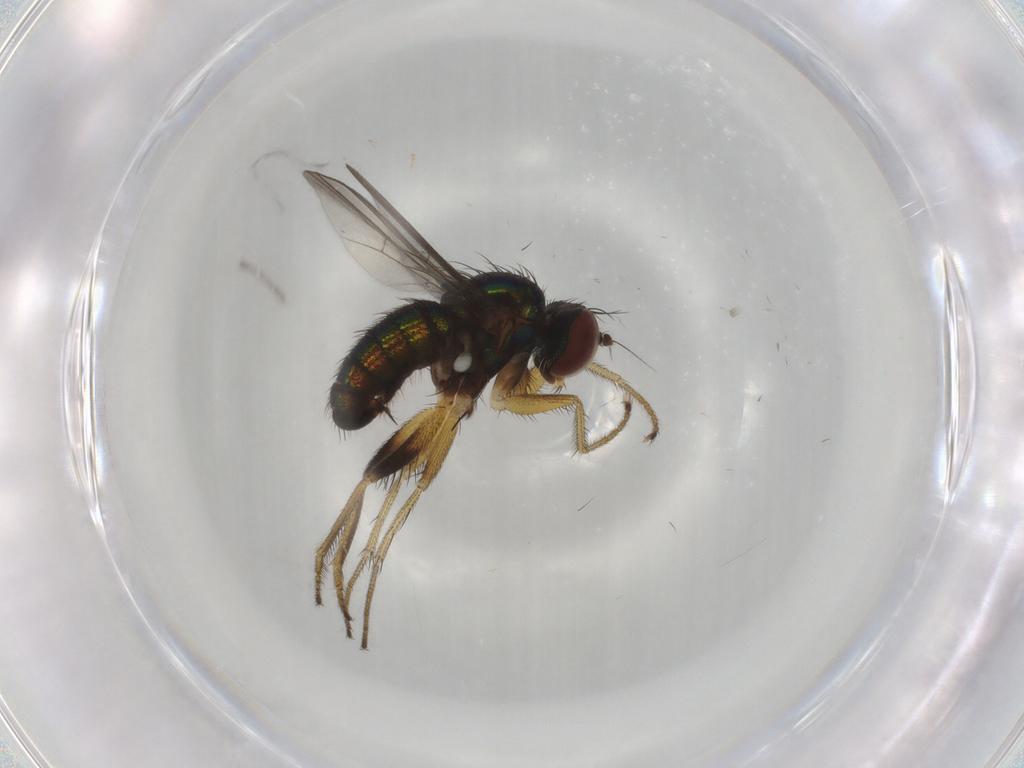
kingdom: Animalia
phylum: Arthropoda
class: Insecta
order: Diptera
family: Dolichopodidae
